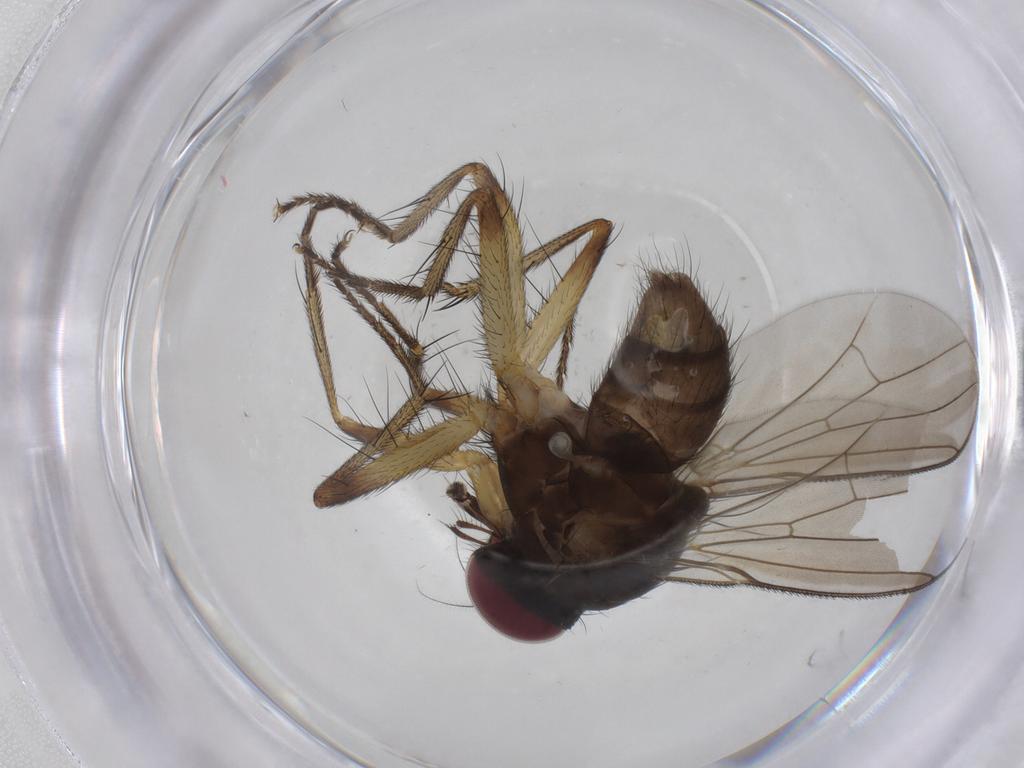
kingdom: Animalia
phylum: Arthropoda
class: Insecta
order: Diptera
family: Anthomyiidae
